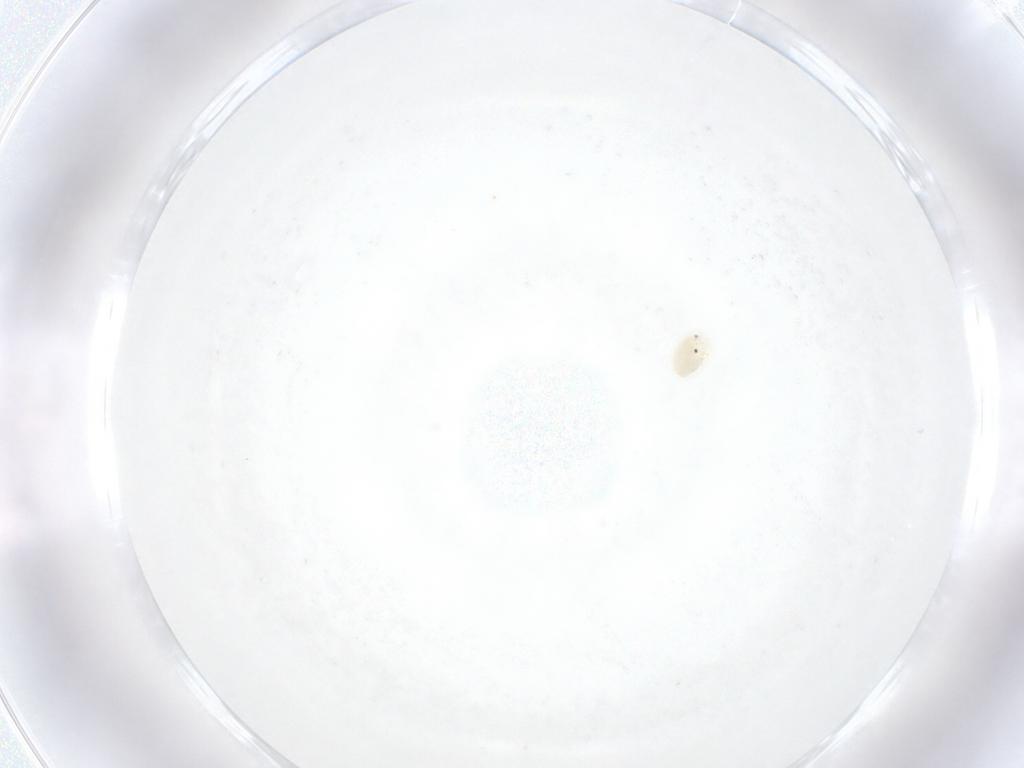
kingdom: Animalia
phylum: Arthropoda
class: Arachnida
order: Trombidiformes
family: Arrenuridae
